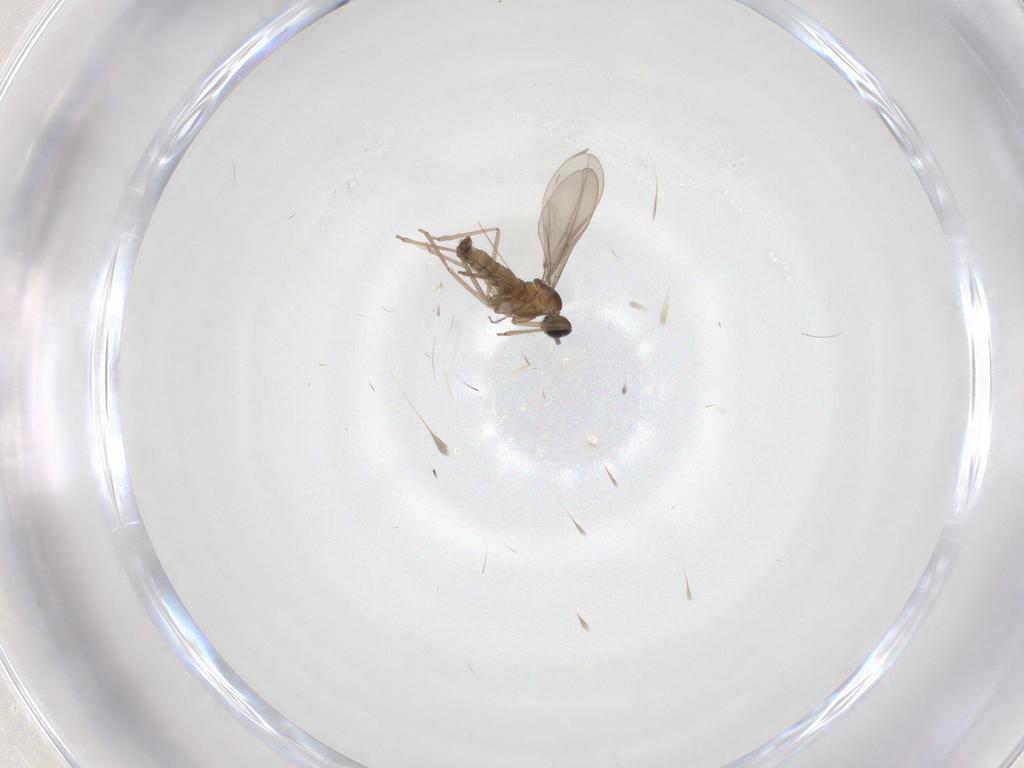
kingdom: Animalia
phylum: Arthropoda
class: Insecta
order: Diptera
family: Cecidomyiidae
